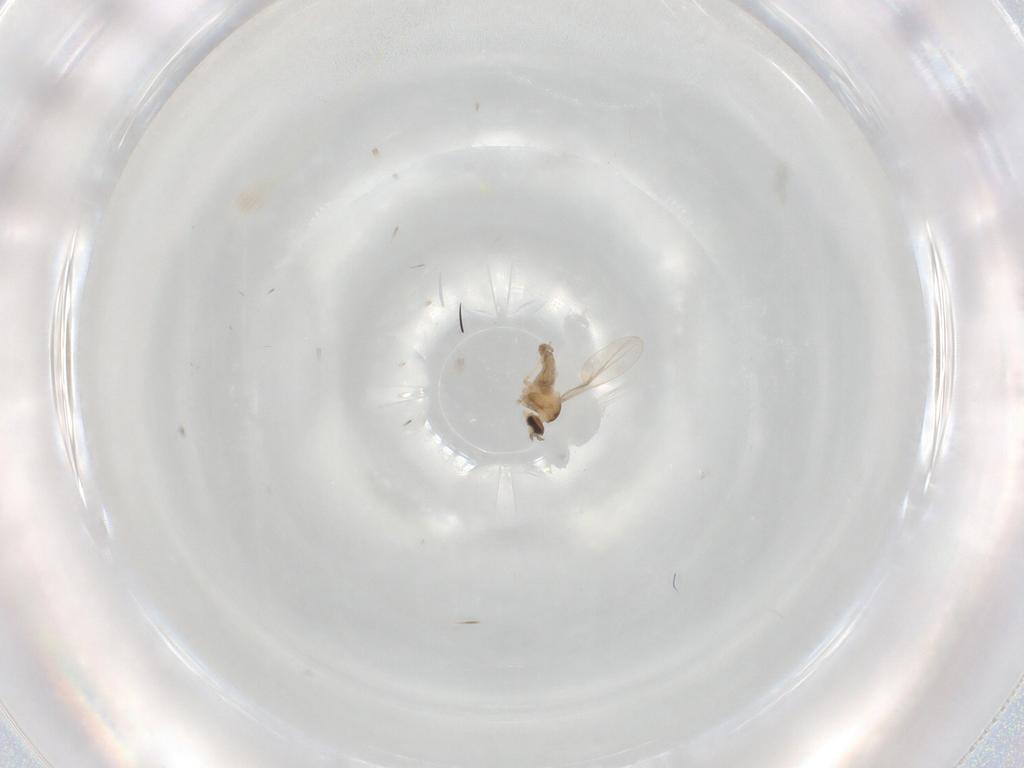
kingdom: Animalia
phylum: Arthropoda
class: Insecta
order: Diptera
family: Cecidomyiidae
